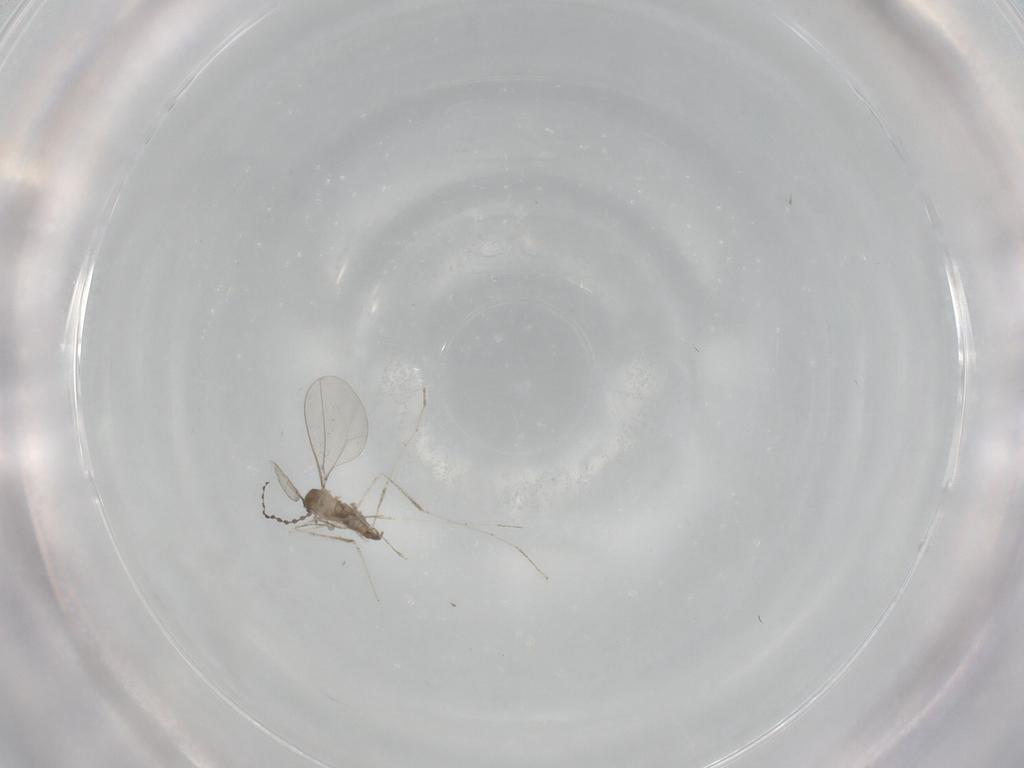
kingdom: Animalia
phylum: Arthropoda
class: Insecta
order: Diptera
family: Cecidomyiidae
